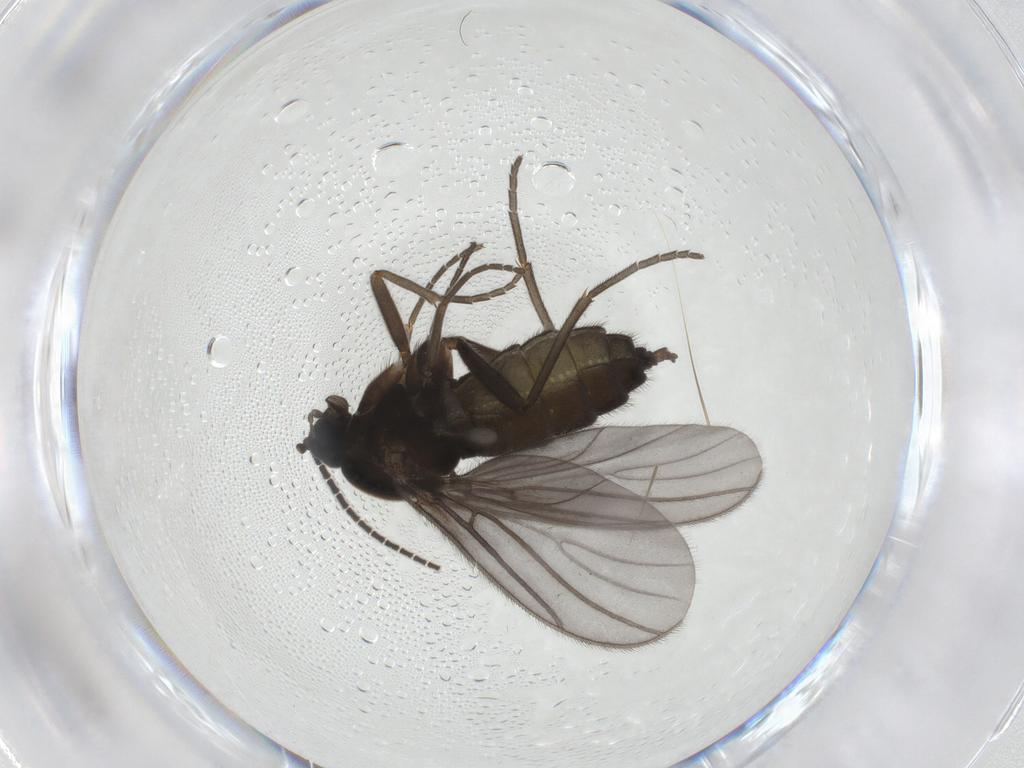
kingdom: Animalia
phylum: Arthropoda
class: Insecta
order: Diptera
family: Sciaridae
